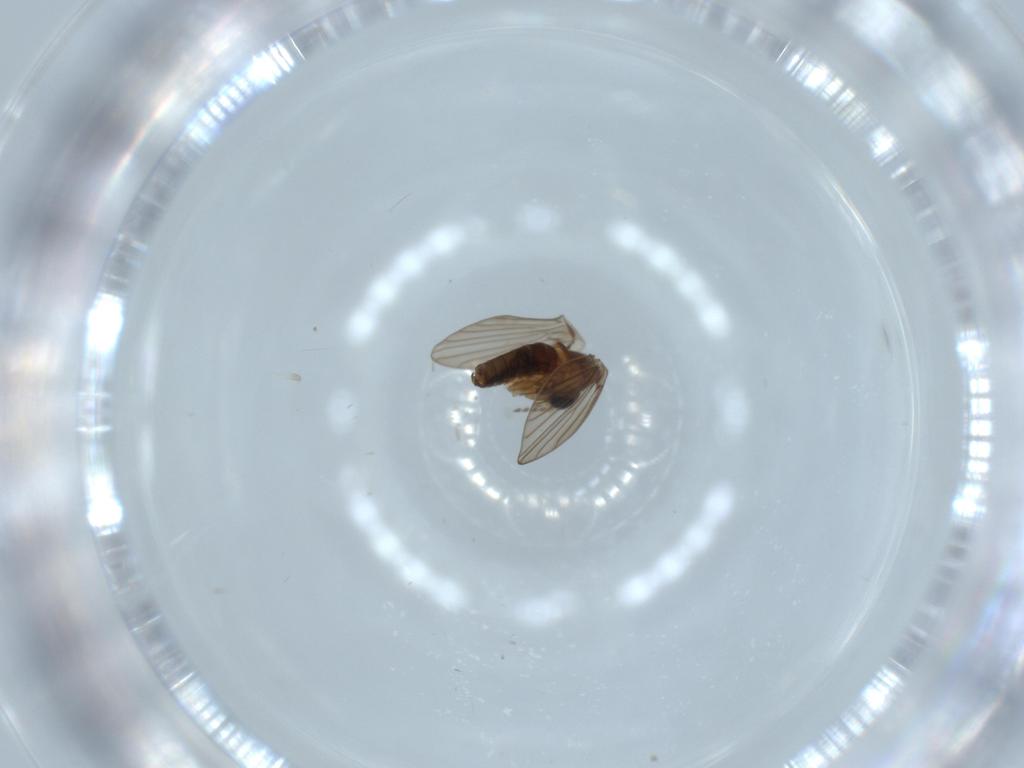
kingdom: Animalia
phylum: Arthropoda
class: Insecta
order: Diptera
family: Psychodidae
